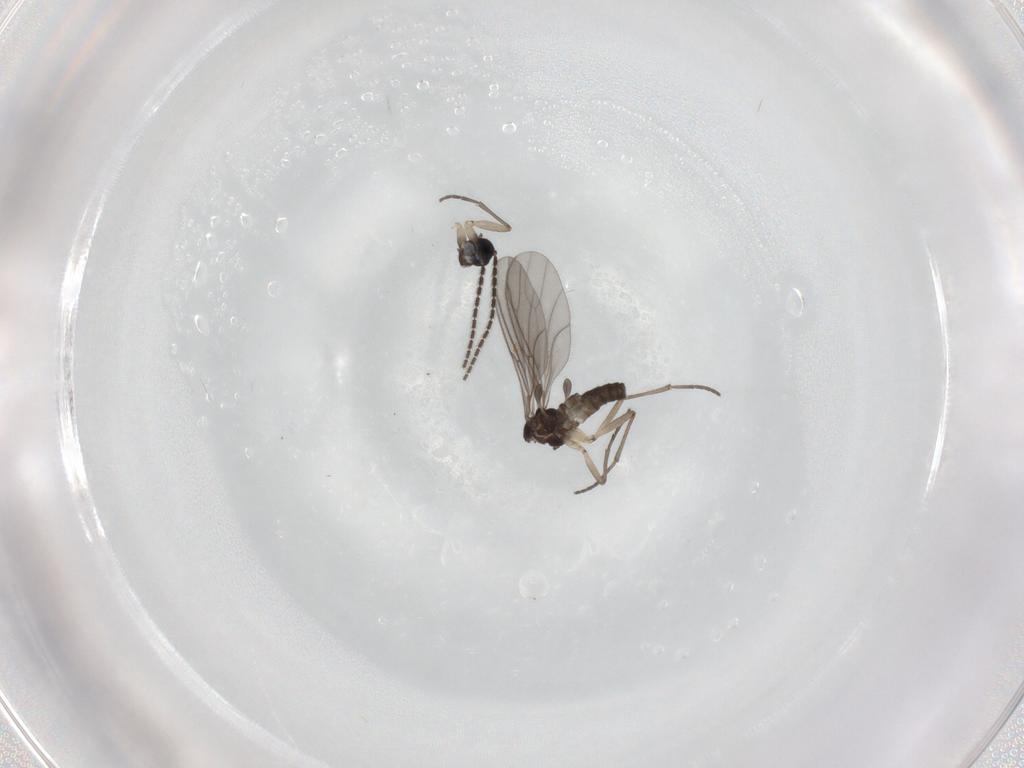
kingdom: Animalia
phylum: Arthropoda
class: Insecta
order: Diptera
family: Sciaridae
